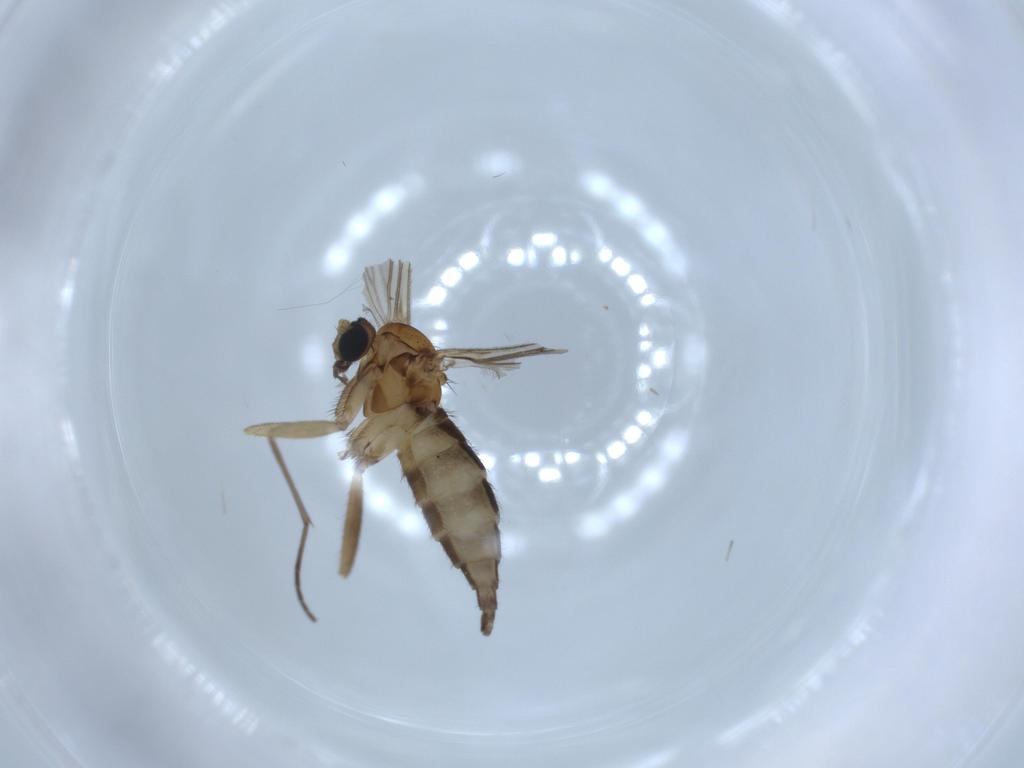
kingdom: Animalia
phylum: Arthropoda
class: Insecta
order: Diptera
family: Sciaridae
